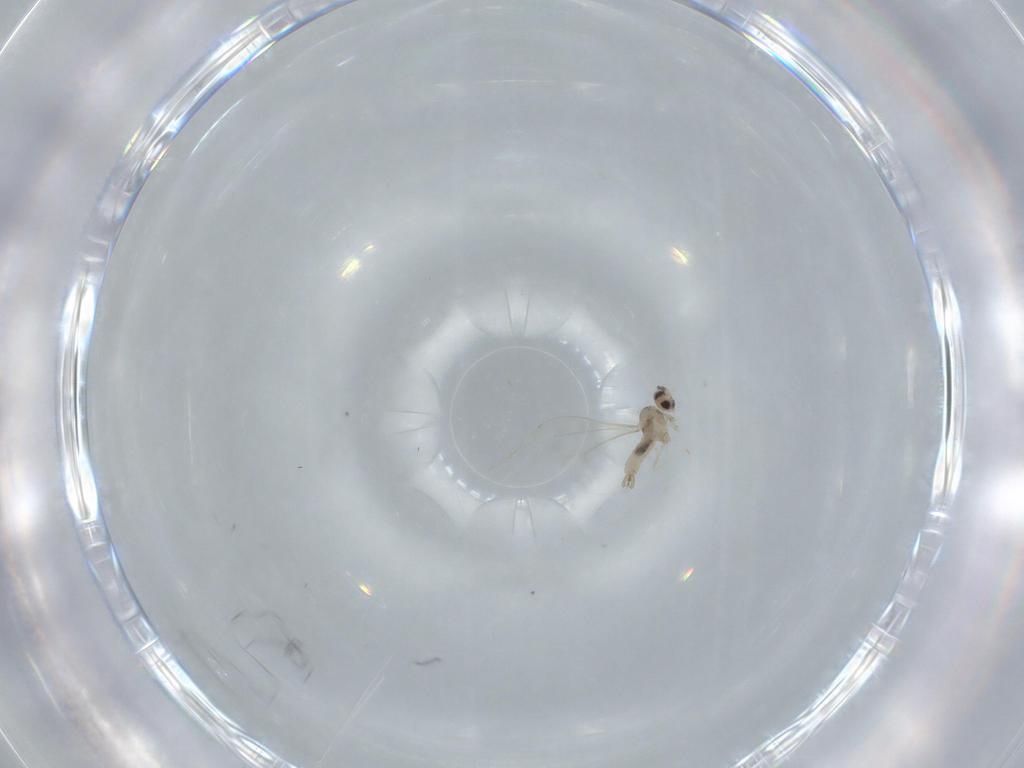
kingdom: Animalia
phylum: Arthropoda
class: Insecta
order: Diptera
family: Cecidomyiidae
